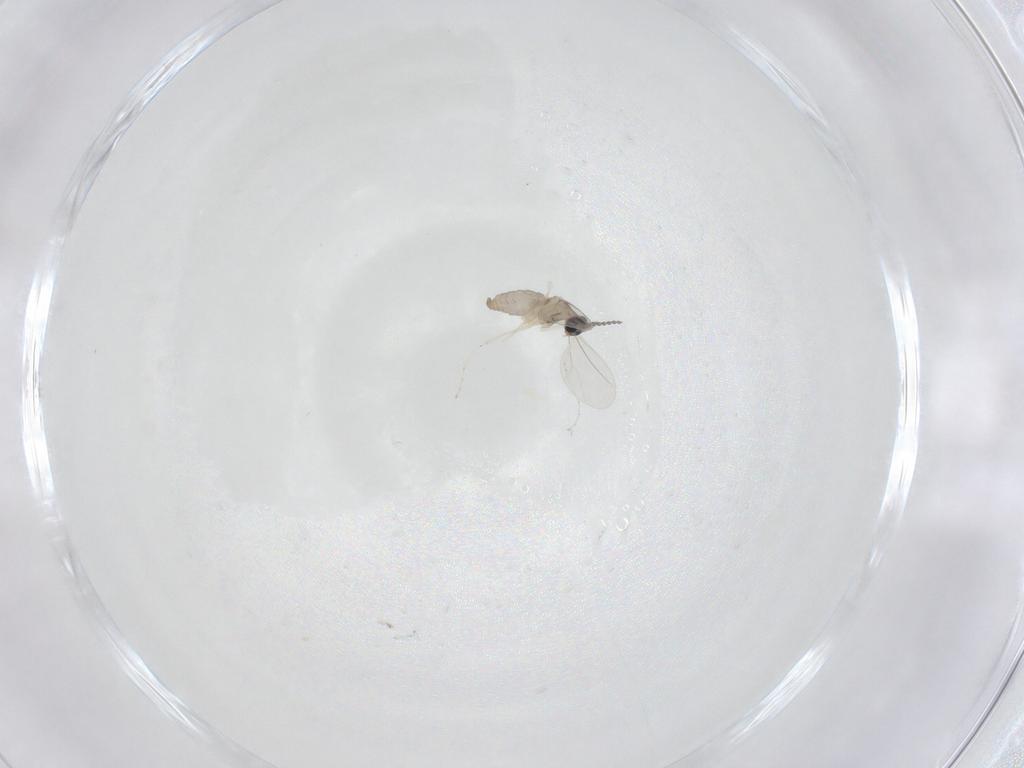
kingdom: Animalia
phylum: Arthropoda
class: Insecta
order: Diptera
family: Cecidomyiidae
